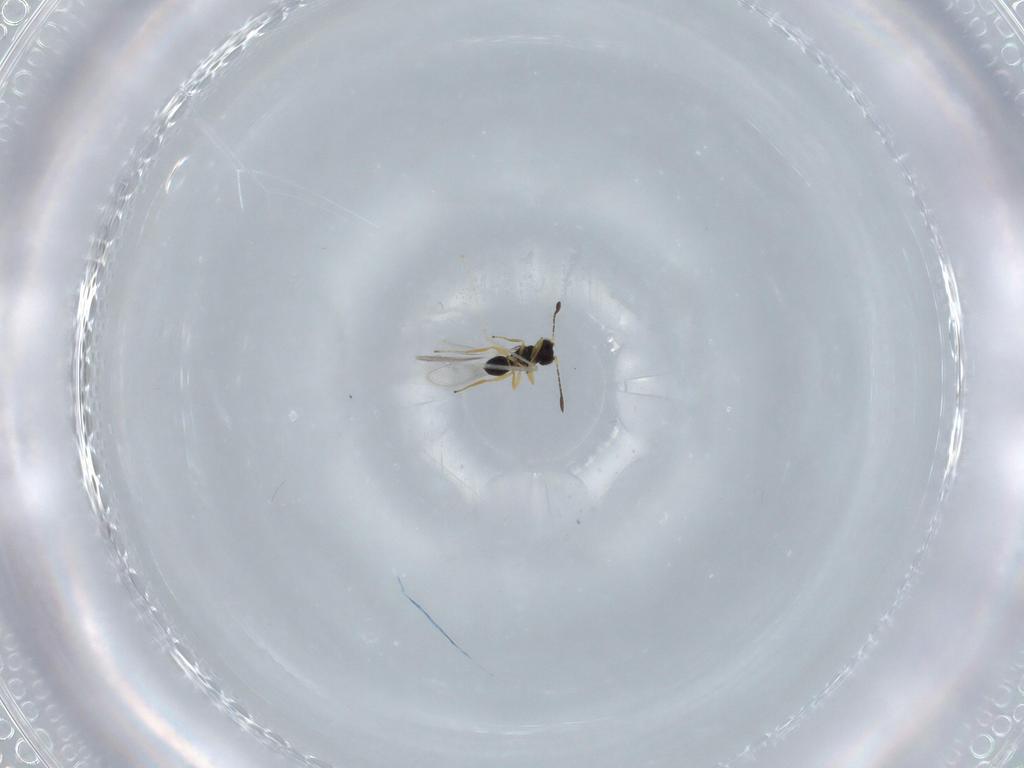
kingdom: Animalia
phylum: Arthropoda
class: Insecta
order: Hymenoptera
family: Mymaridae
